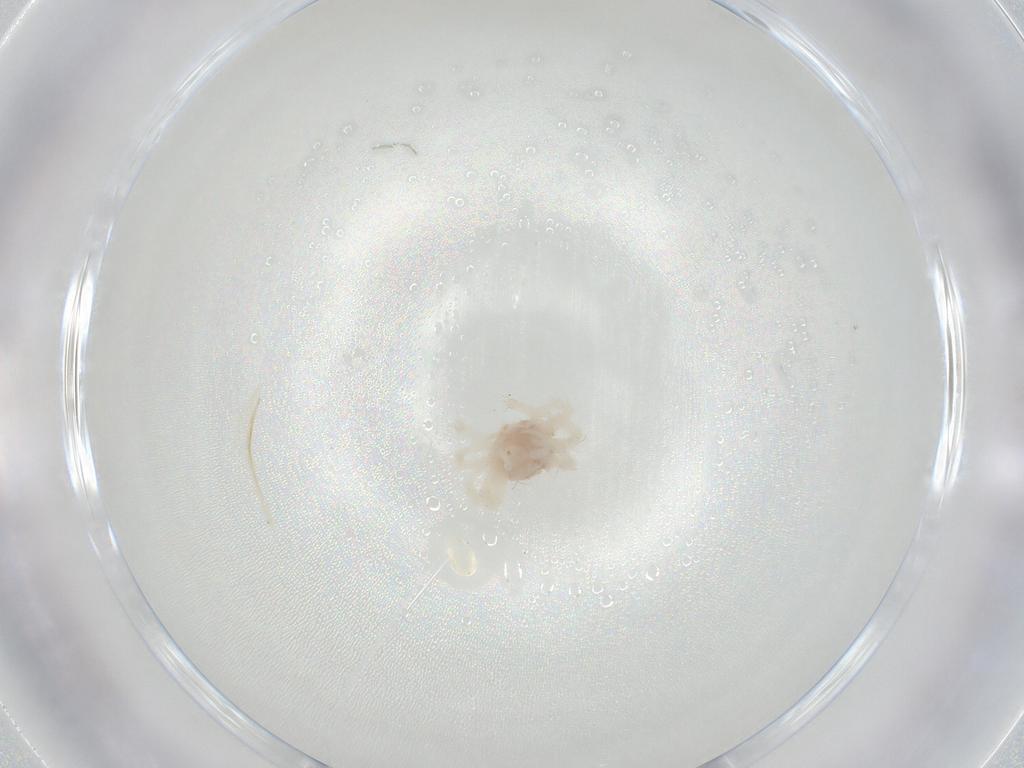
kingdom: Animalia
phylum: Arthropoda
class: Arachnida
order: Trombidiformes
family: Anystidae
